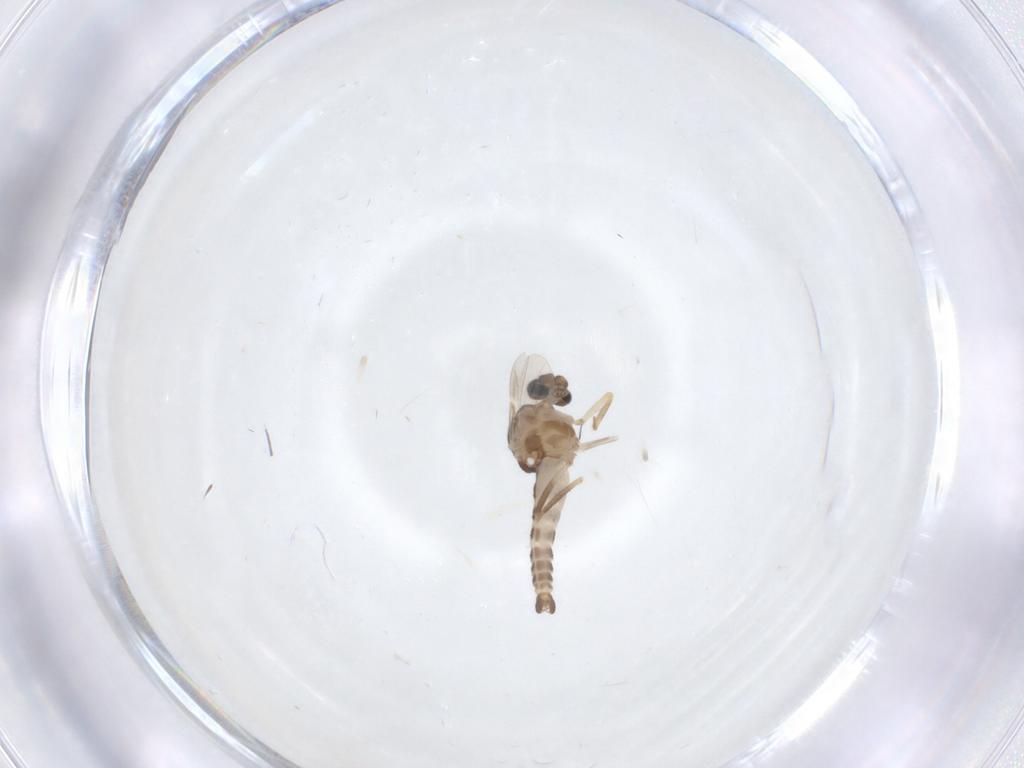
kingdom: Animalia
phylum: Arthropoda
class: Insecta
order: Diptera
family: Ceratopogonidae
